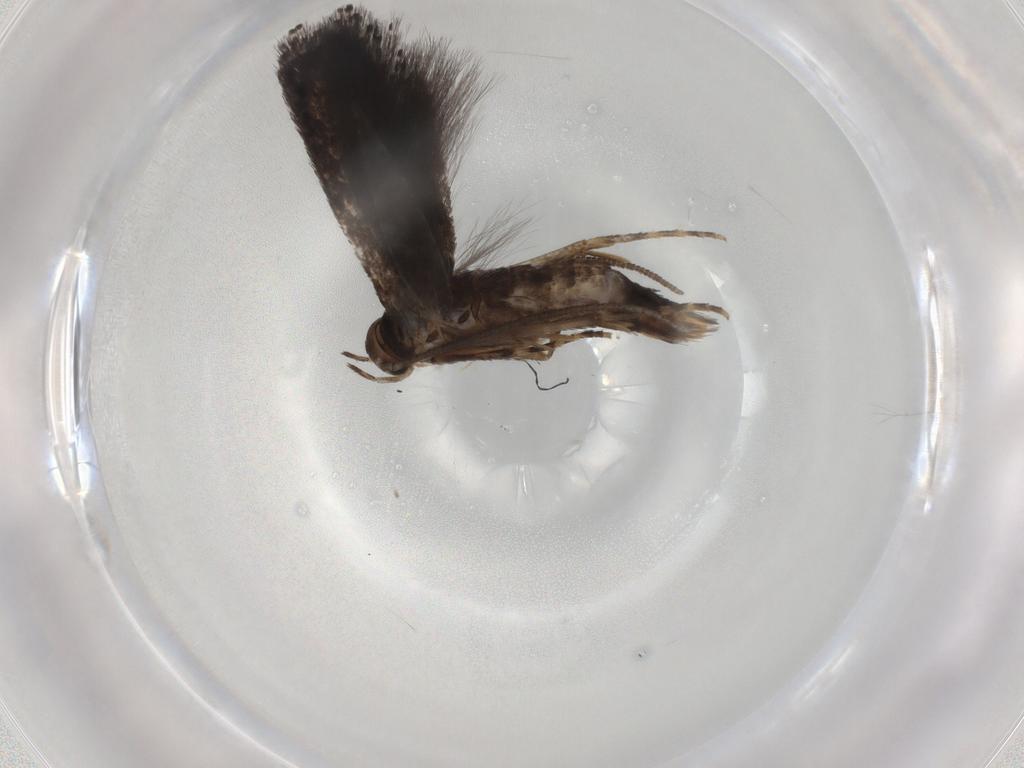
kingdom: Animalia
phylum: Arthropoda
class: Insecta
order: Lepidoptera
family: Elachistidae
